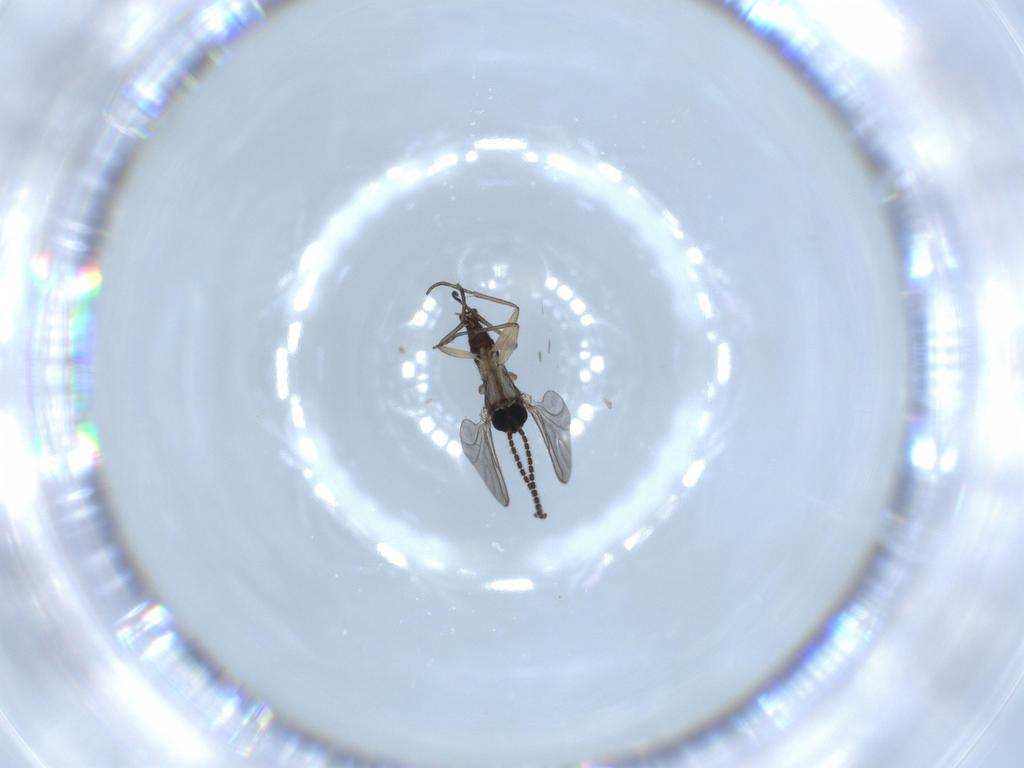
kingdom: Animalia
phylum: Arthropoda
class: Insecta
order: Diptera
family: Sciaridae
